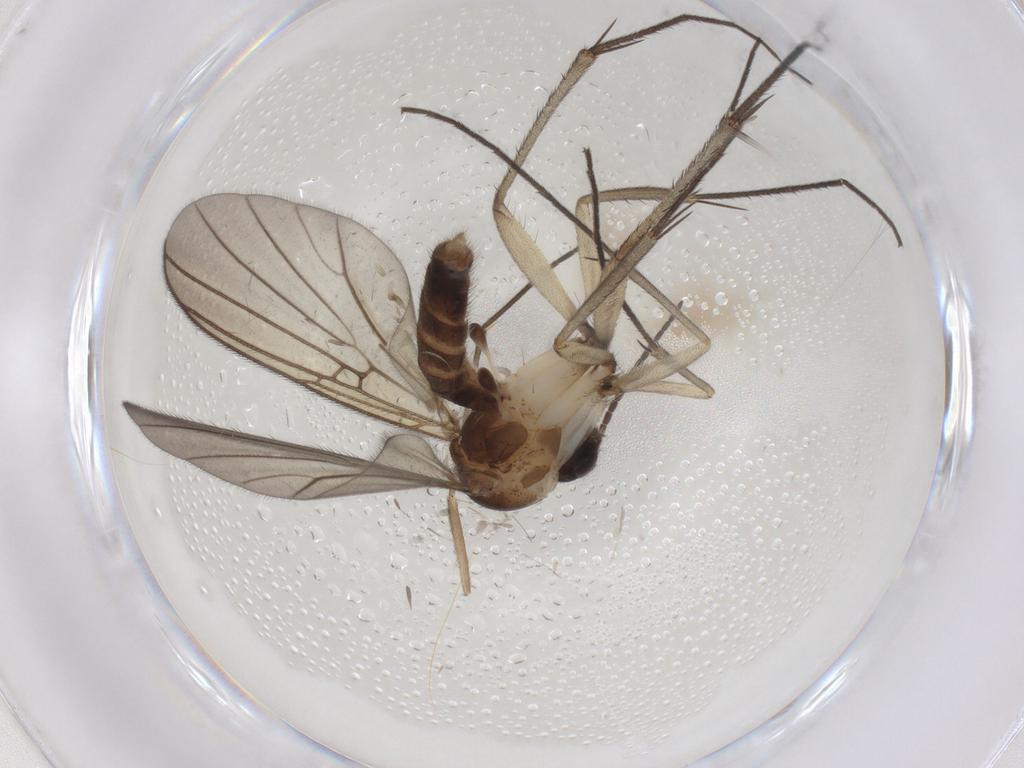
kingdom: Animalia
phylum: Arthropoda
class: Insecta
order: Diptera
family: Sciaridae
